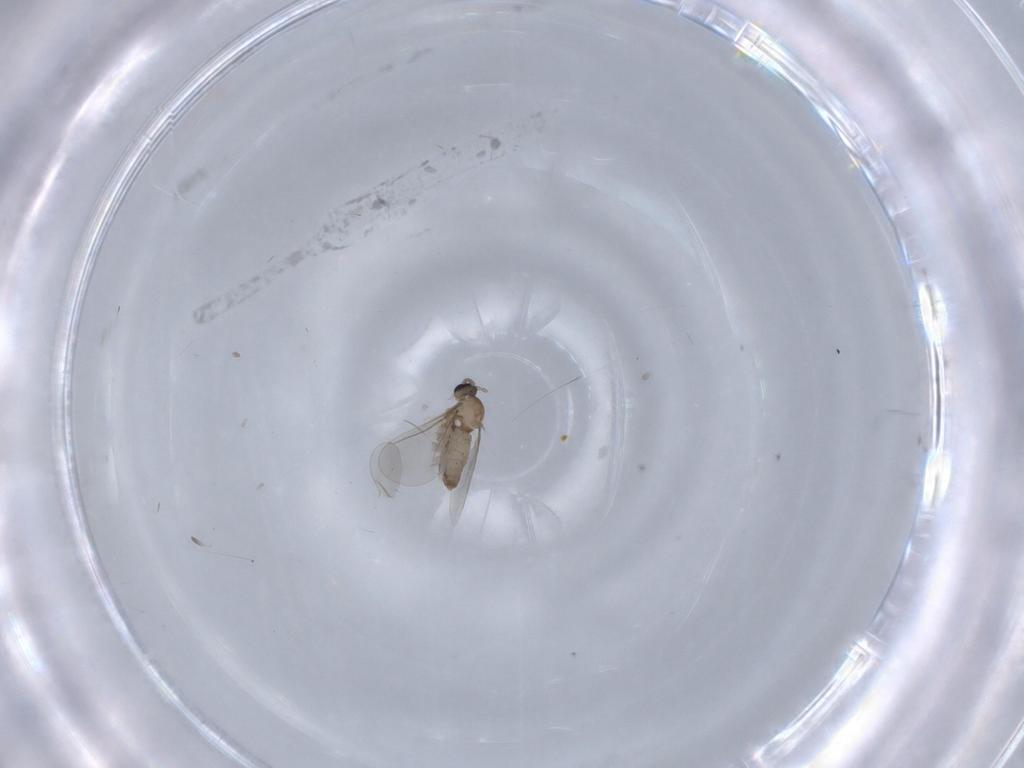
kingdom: Animalia
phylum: Arthropoda
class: Insecta
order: Diptera
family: Cecidomyiidae
